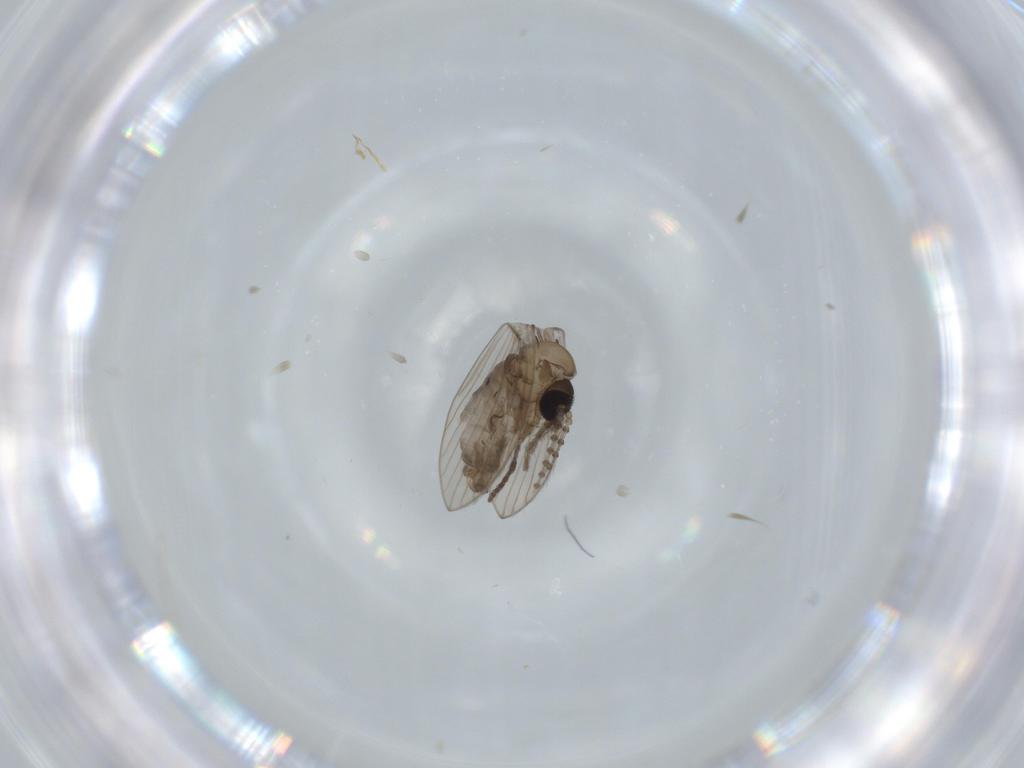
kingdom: Animalia
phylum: Arthropoda
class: Insecta
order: Diptera
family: Psychodidae
